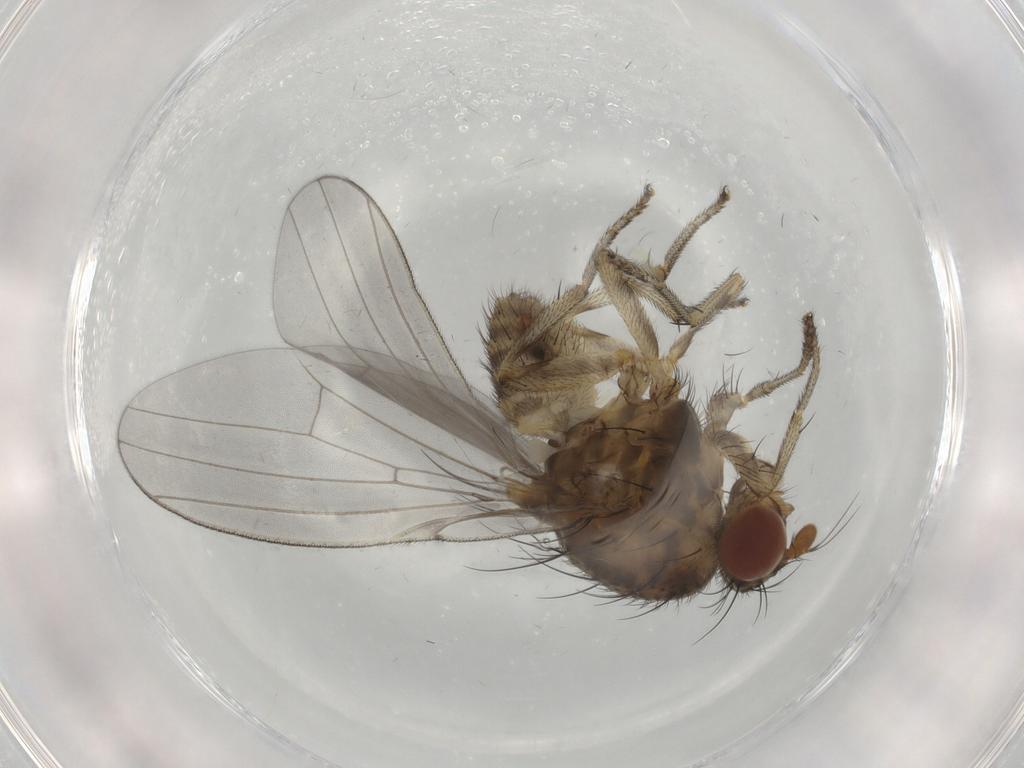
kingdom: Animalia
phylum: Arthropoda
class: Insecta
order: Diptera
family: Lauxaniidae
